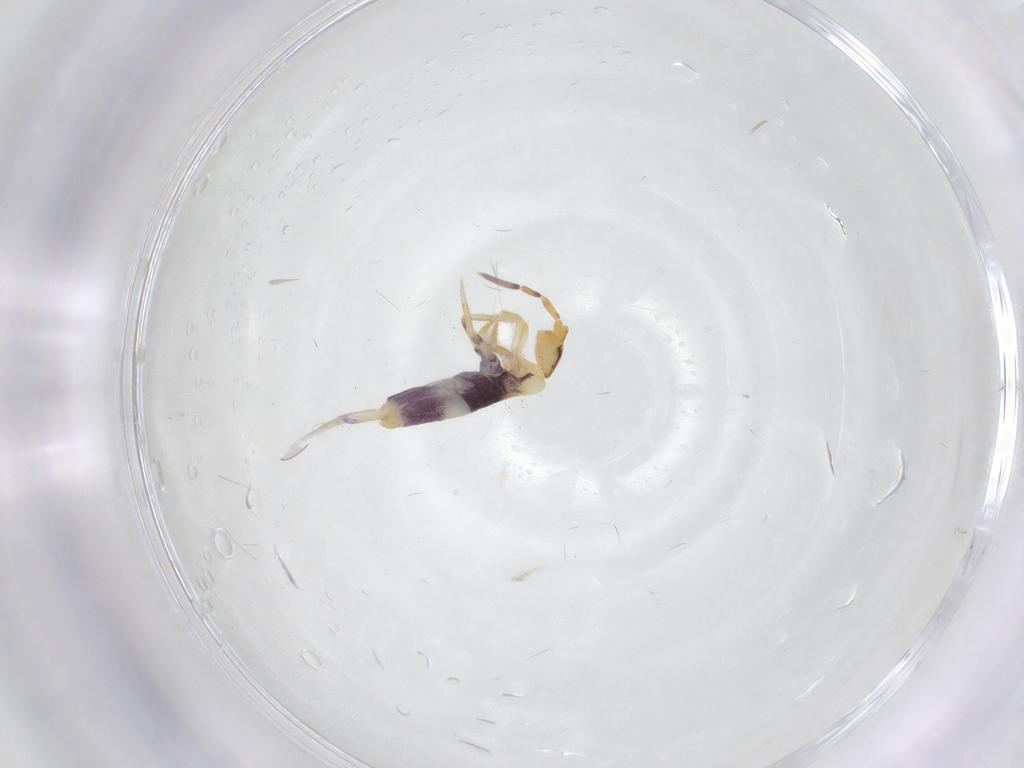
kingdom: Animalia
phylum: Arthropoda
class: Collembola
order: Entomobryomorpha
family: Entomobryidae
